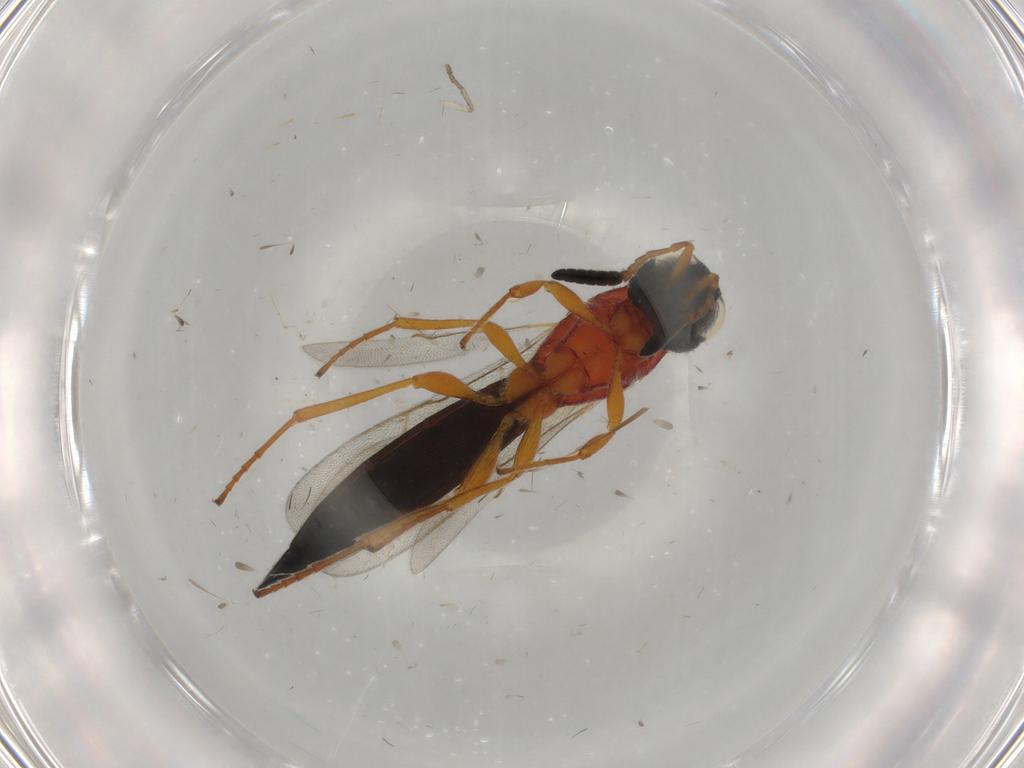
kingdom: Animalia
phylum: Arthropoda
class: Insecta
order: Hymenoptera
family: Scelionidae
